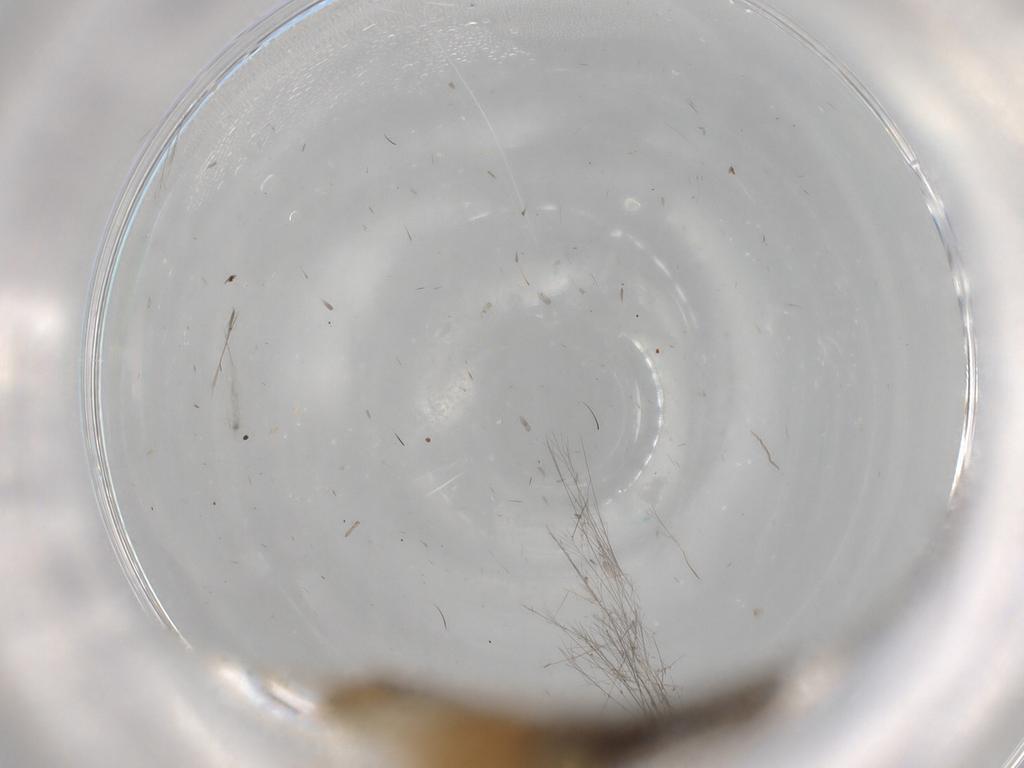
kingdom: Animalia
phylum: Arthropoda
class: Insecta
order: Lepidoptera
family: Pterolonchidae
